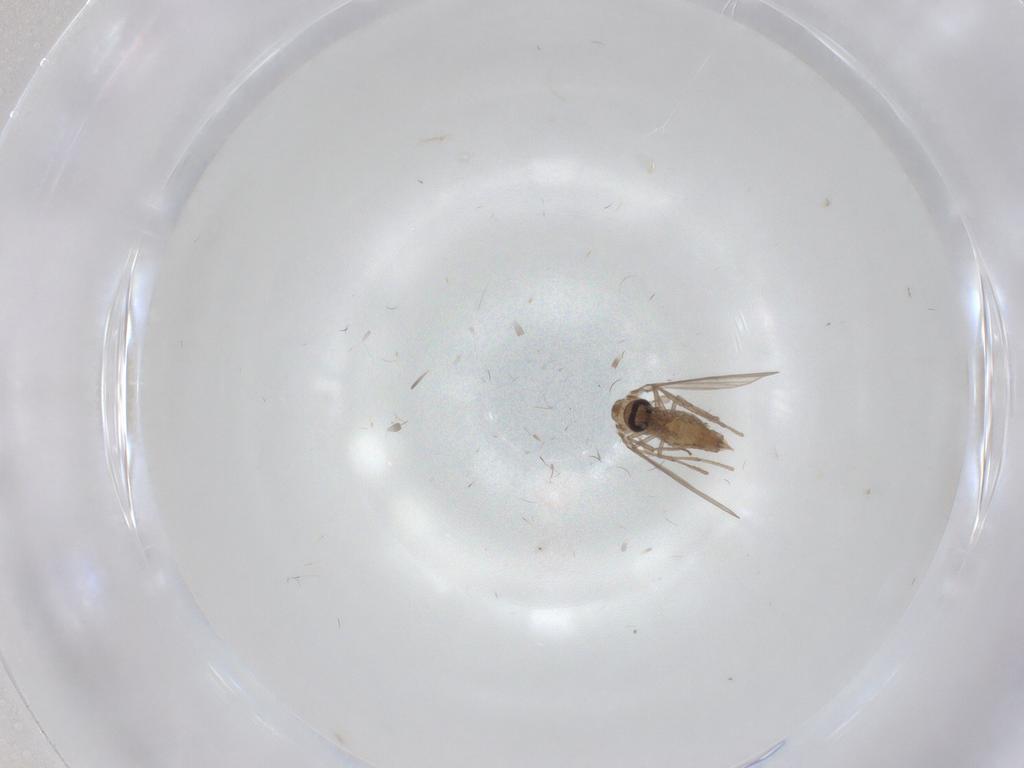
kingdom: Animalia
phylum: Arthropoda
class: Insecta
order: Diptera
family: Psychodidae
